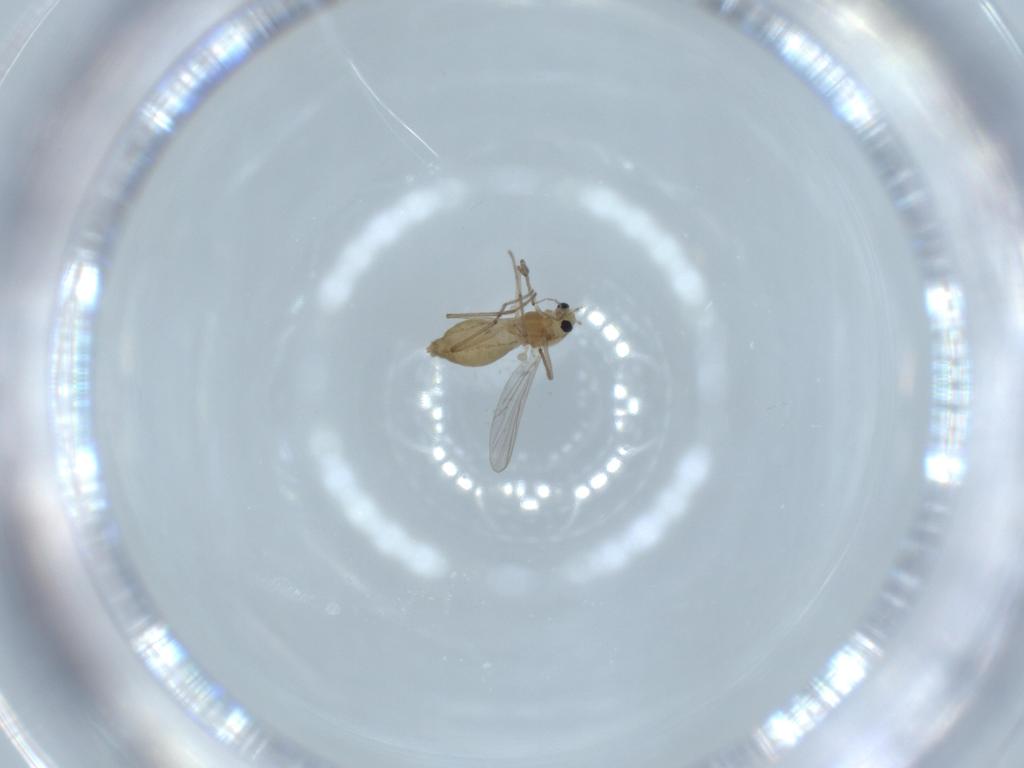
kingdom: Animalia
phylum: Arthropoda
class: Insecta
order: Diptera
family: Chironomidae
